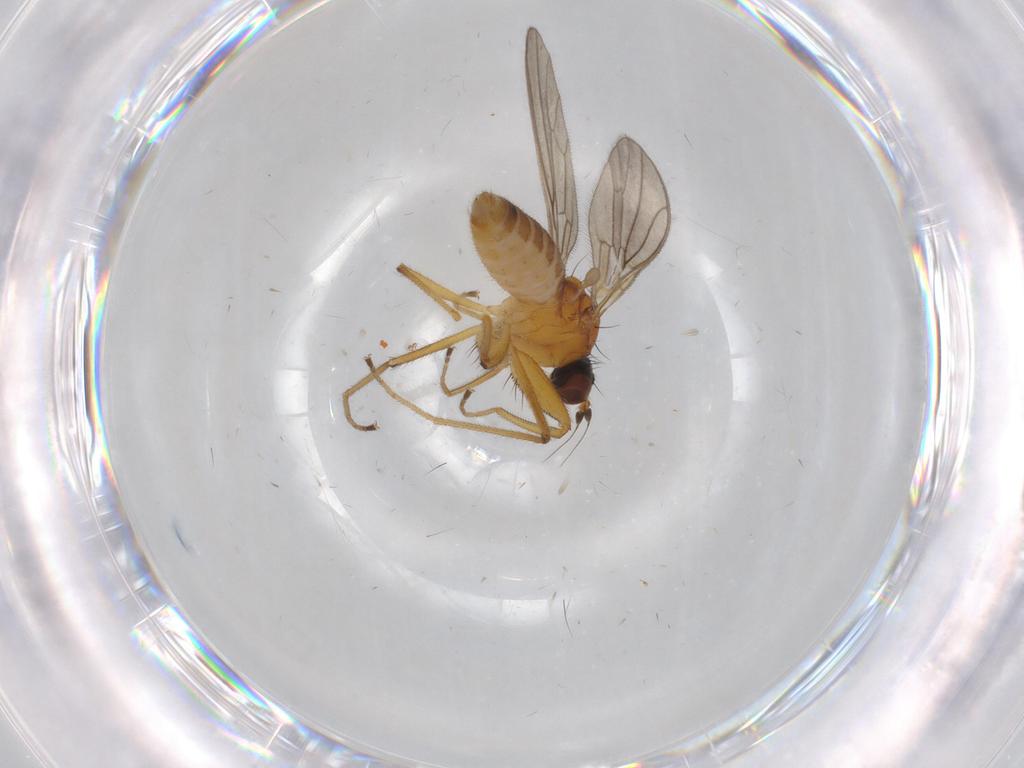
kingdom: Animalia
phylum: Arthropoda
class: Insecta
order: Diptera
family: Empididae
